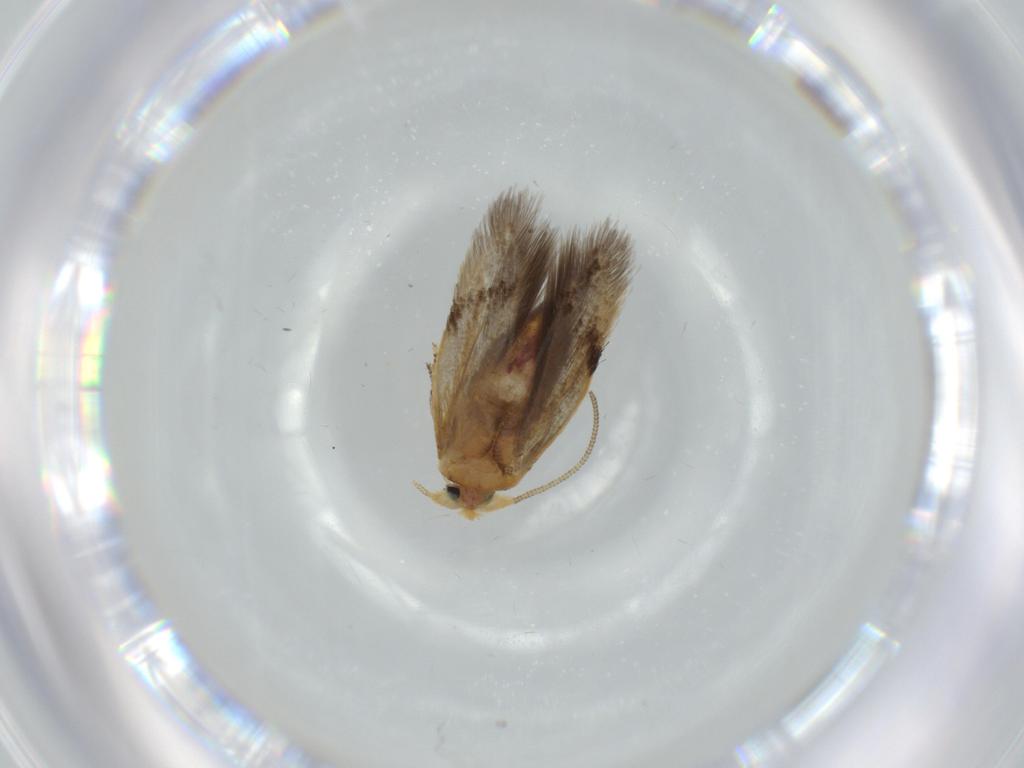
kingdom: Animalia
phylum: Arthropoda
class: Insecta
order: Lepidoptera
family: Nepticulidae
